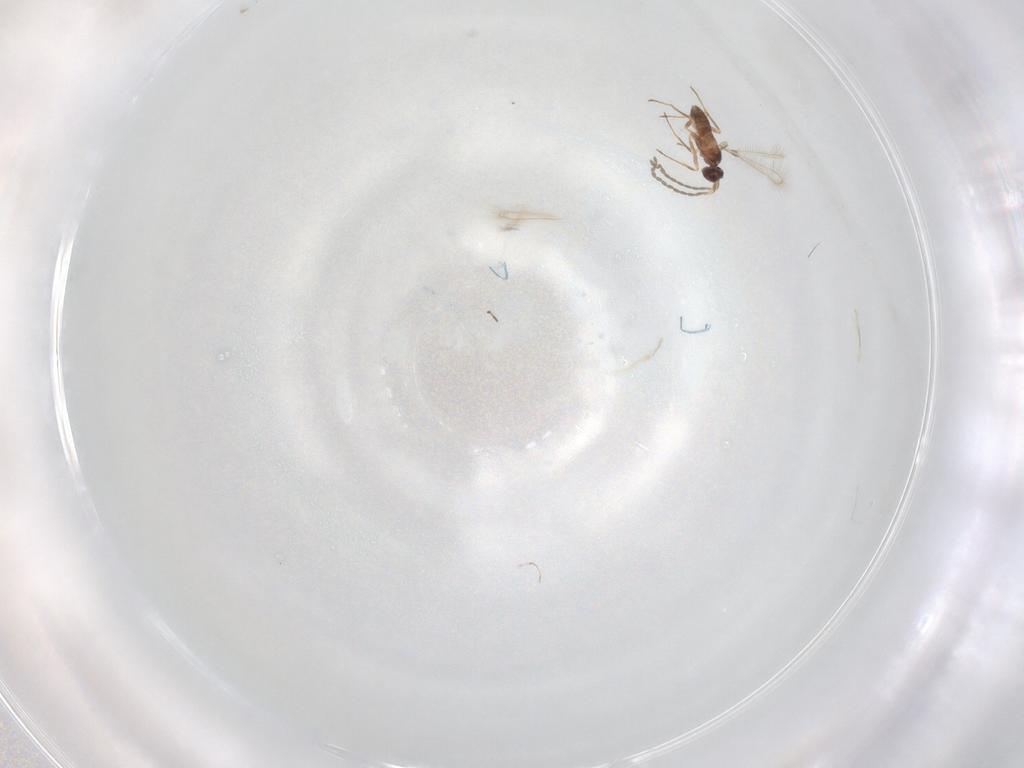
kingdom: Animalia
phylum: Arthropoda
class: Insecta
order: Hymenoptera
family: Mymaridae
